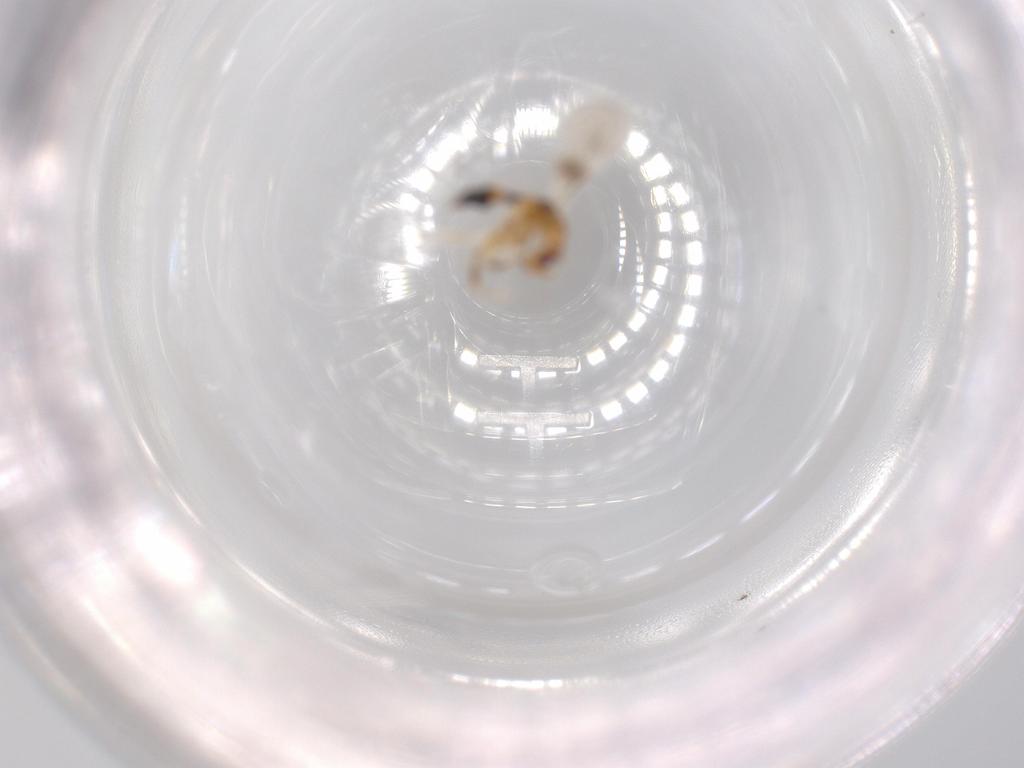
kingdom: Animalia
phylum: Arthropoda
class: Insecta
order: Hymenoptera
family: Torymidae
